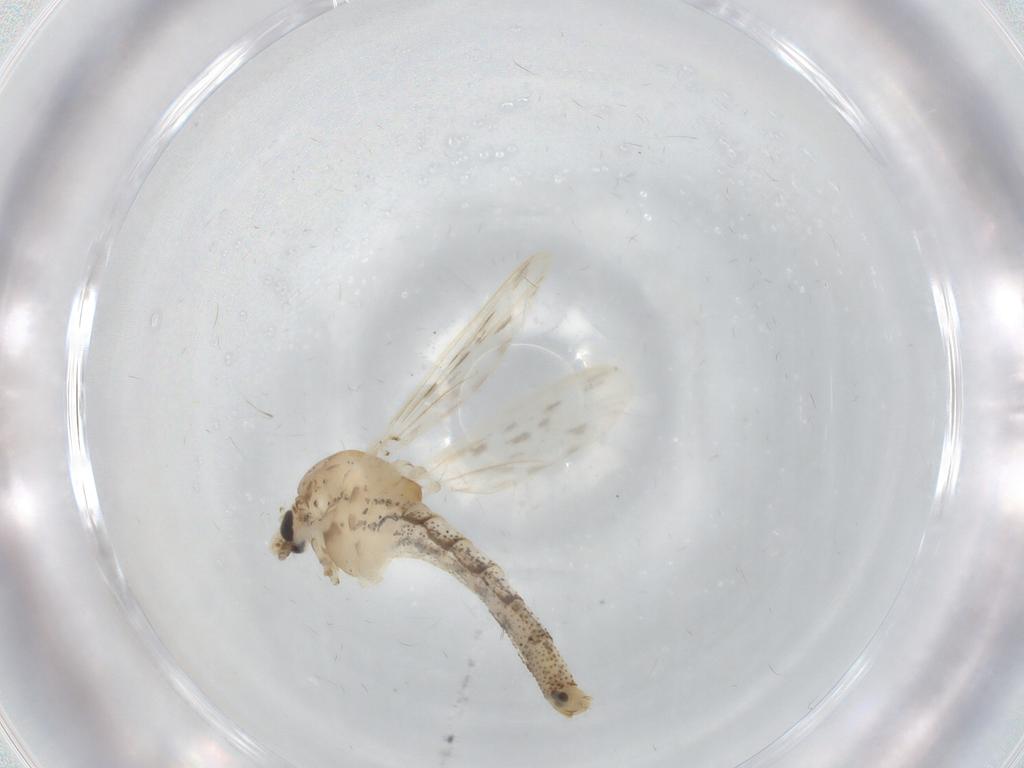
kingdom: Animalia
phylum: Arthropoda
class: Insecta
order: Diptera
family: Chaoboridae
